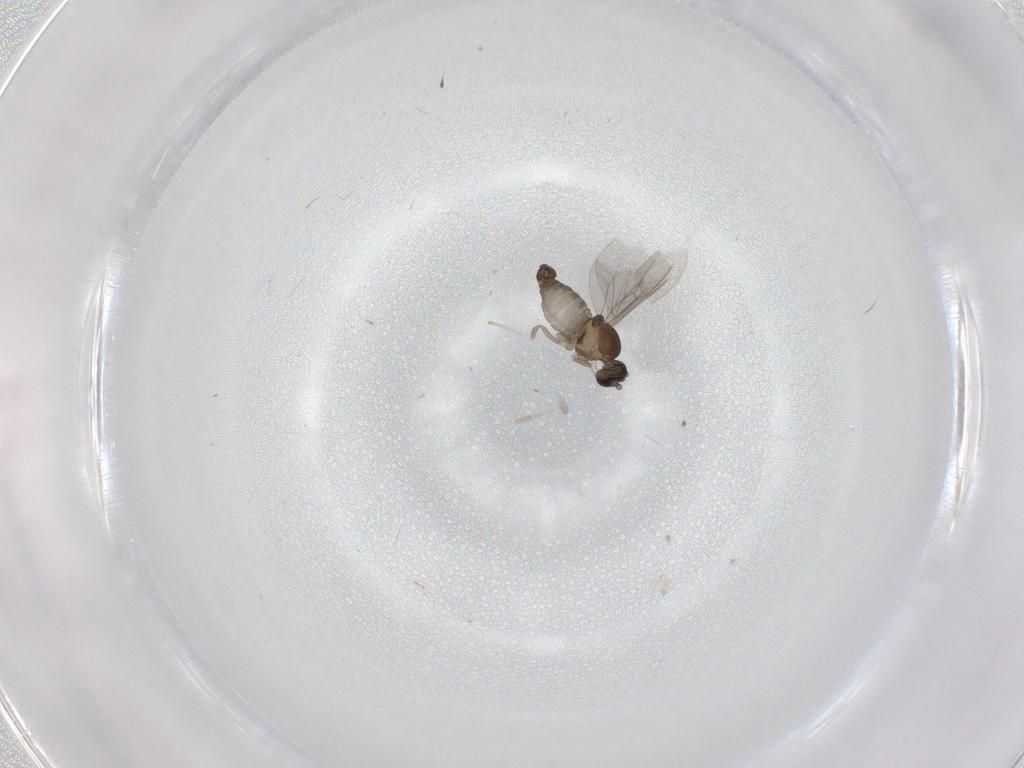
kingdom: Animalia
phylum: Arthropoda
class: Insecta
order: Diptera
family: Cecidomyiidae
